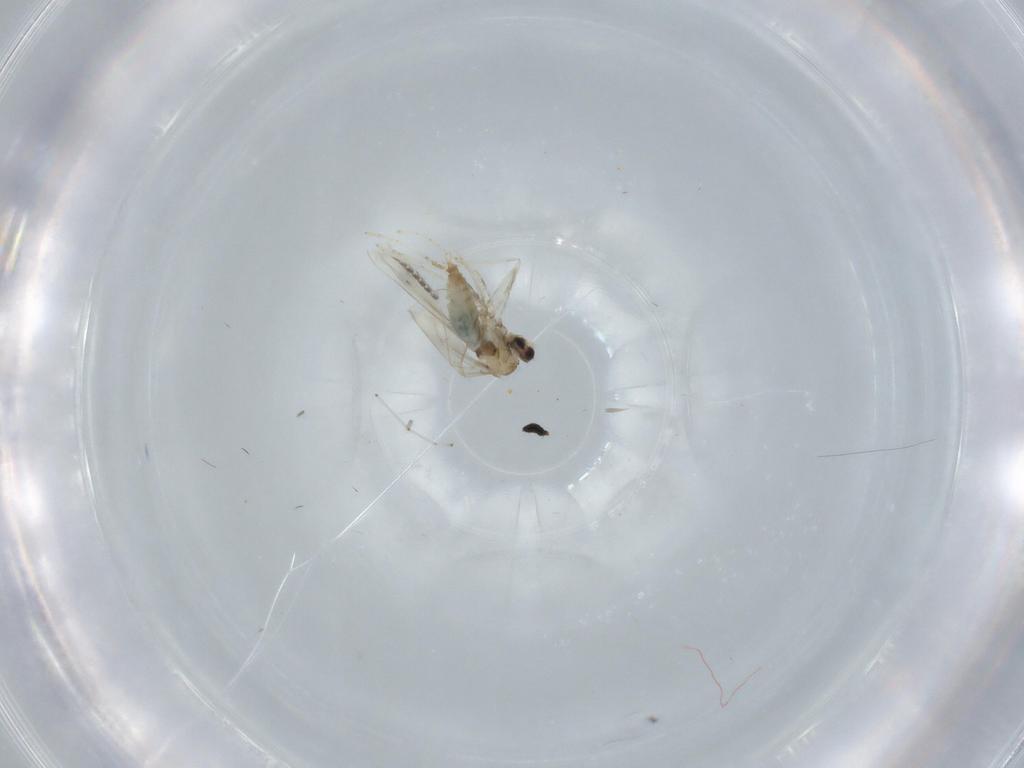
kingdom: Animalia
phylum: Arthropoda
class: Insecta
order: Diptera
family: Cecidomyiidae
